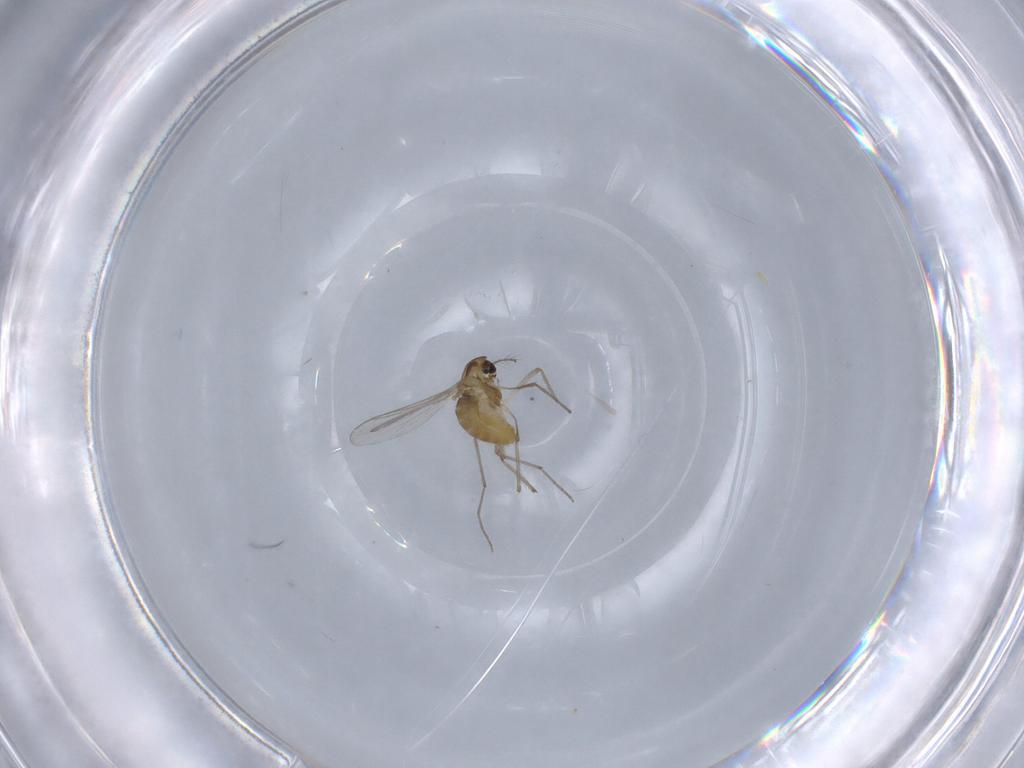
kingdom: Animalia
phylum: Arthropoda
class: Insecta
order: Diptera
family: Chironomidae
